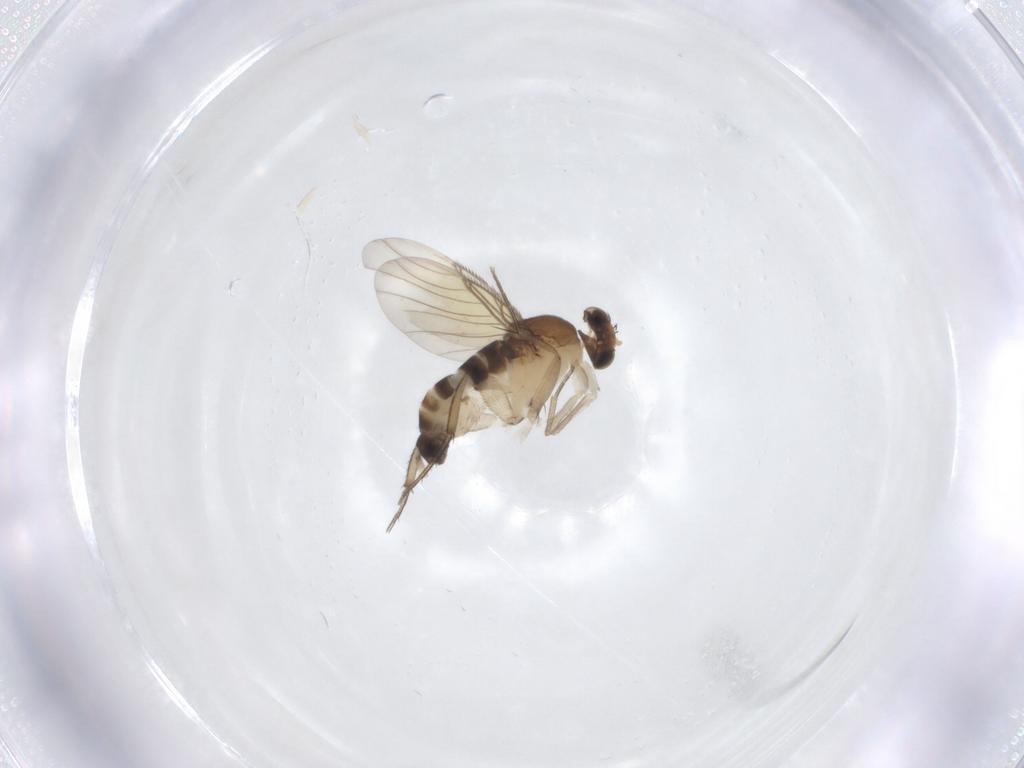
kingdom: Animalia
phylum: Arthropoda
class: Insecta
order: Diptera
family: Phoridae
